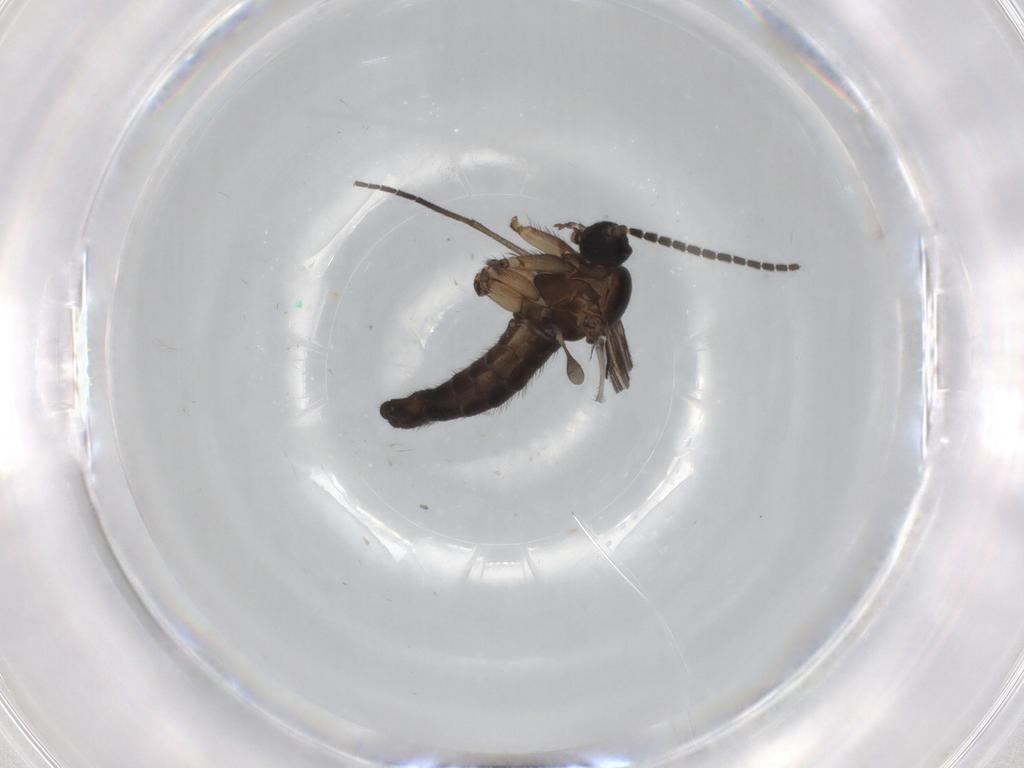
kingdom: Animalia
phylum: Arthropoda
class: Insecta
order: Diptera
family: Sciaridae
